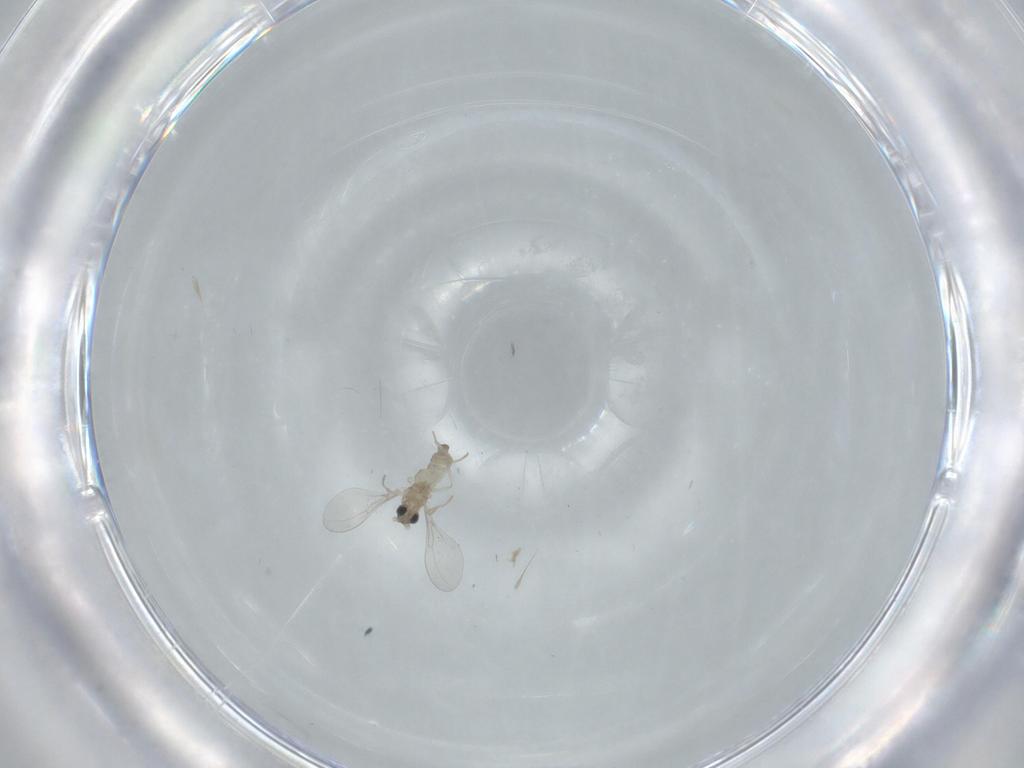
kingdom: Animalia
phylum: Arthropoda
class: Insecta
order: Diptera
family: Cecidomyiidae
